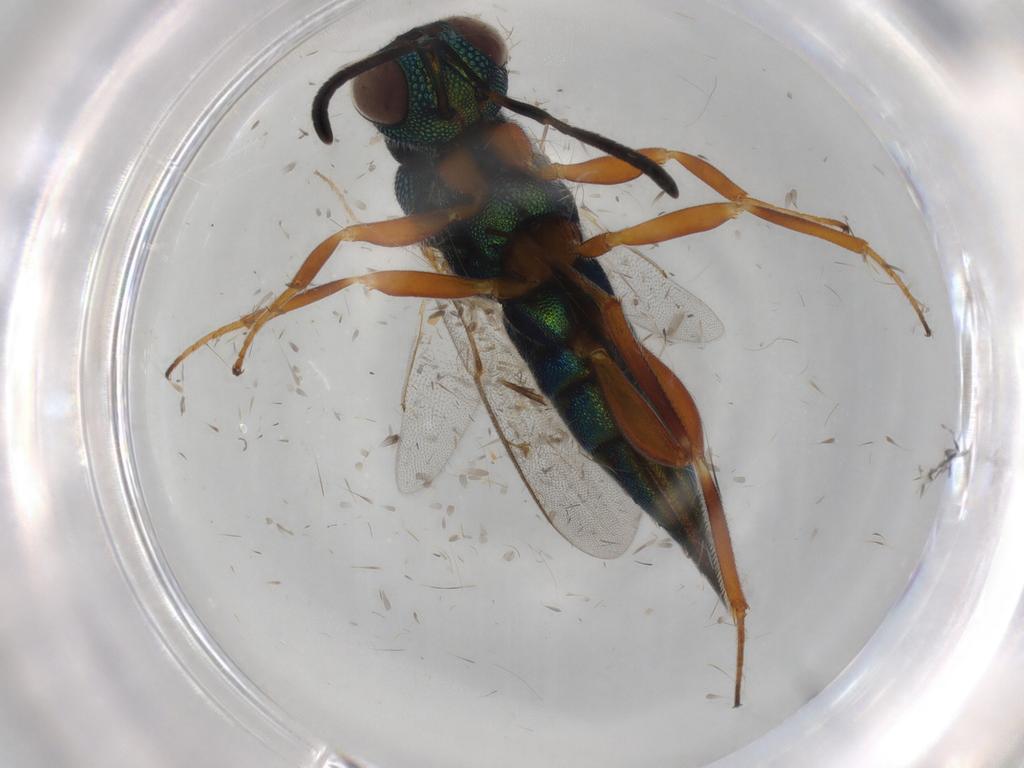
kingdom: Animalia
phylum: Arthropoda
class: Insecta
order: Hymenoptera
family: Lyciscidae
